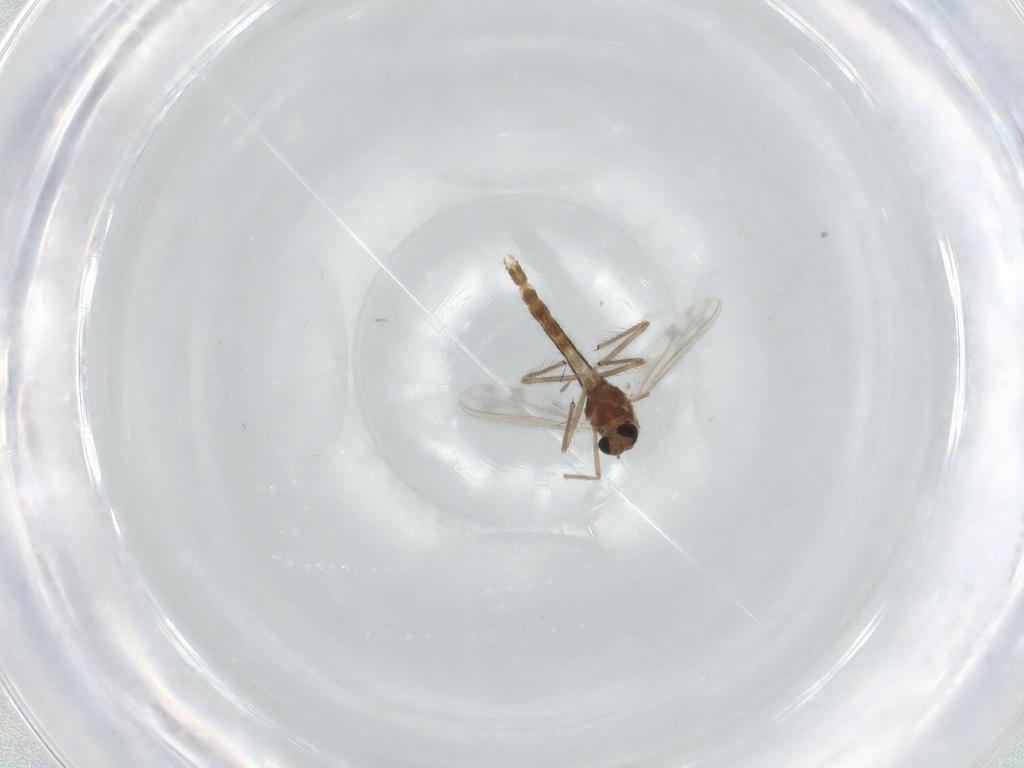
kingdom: Animalia
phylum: Arthropoda
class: Insecta
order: Diptera
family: Chironomidae
